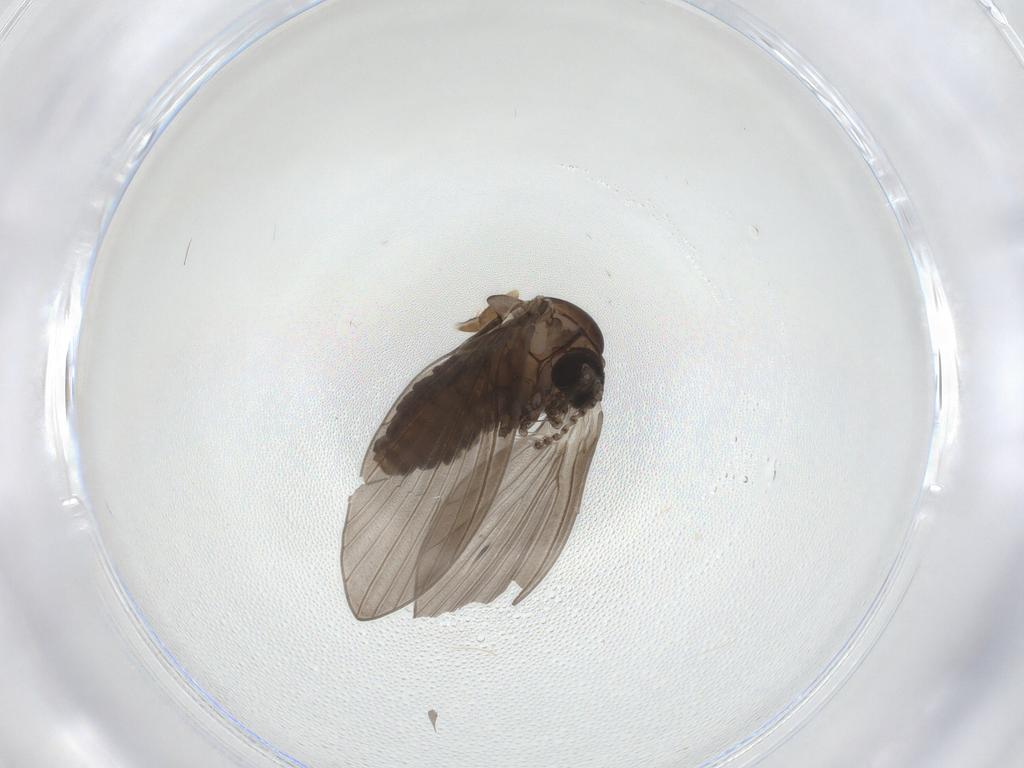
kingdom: Animalia
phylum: Arthropoda
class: Insecta
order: Diptera
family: Psychodidae
